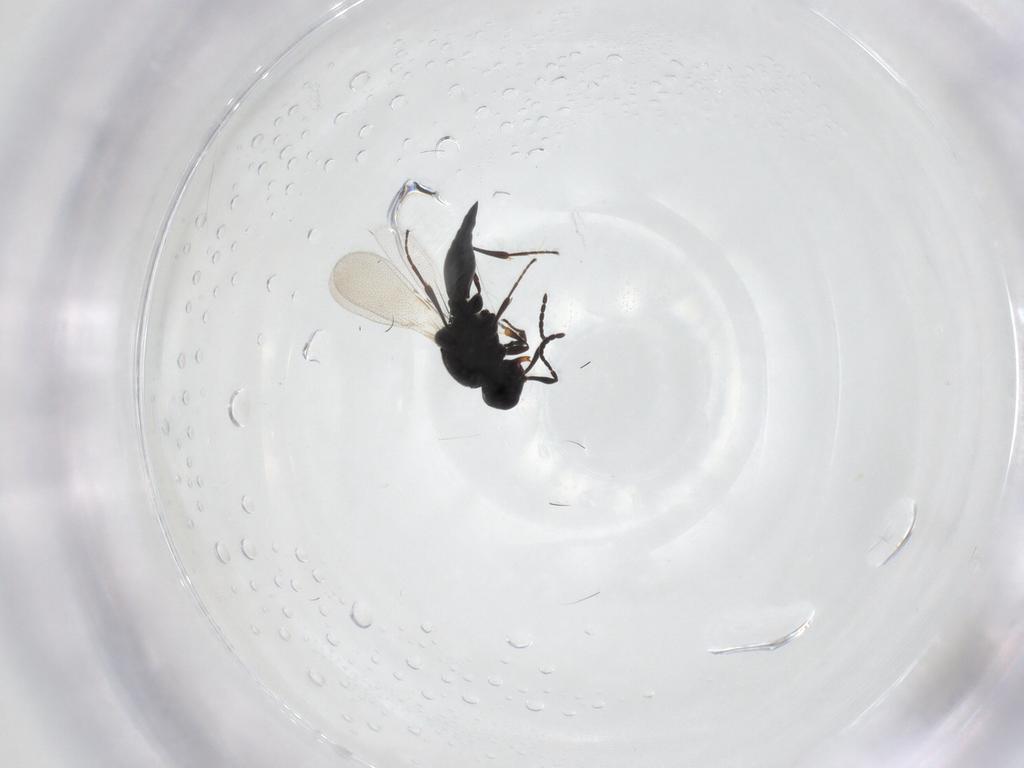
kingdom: Animalia
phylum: Arthropoda
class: Insecta
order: Hymenoptera
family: Platygastridae
